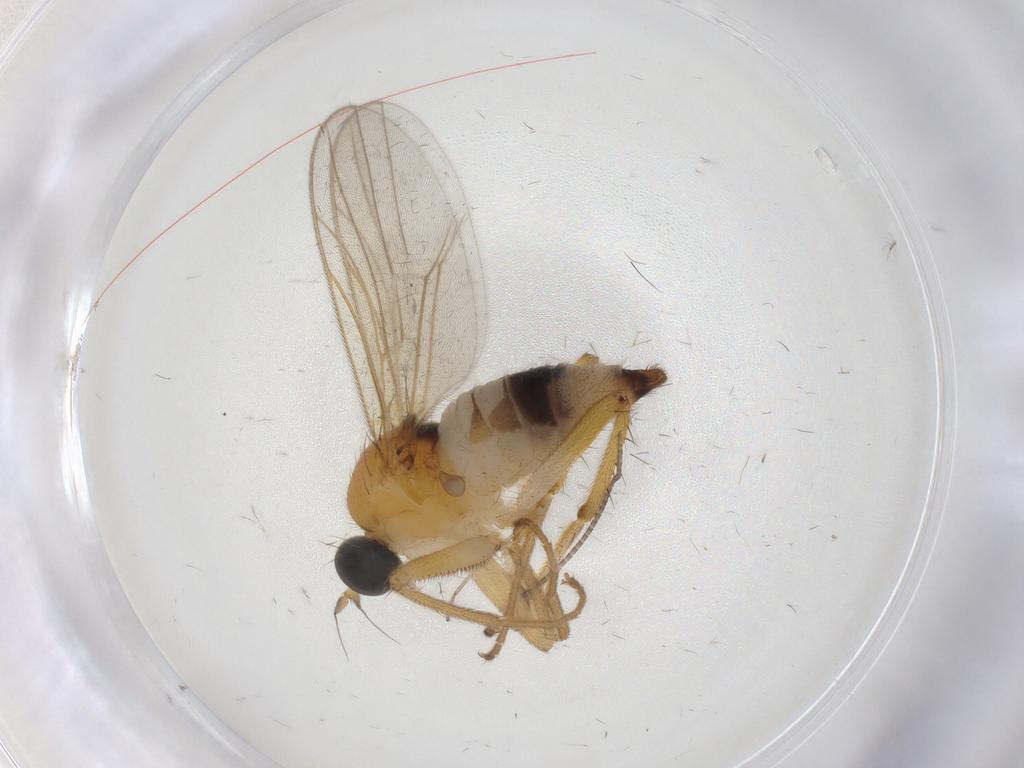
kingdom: Animalia
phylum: Arthropoda
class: Insecta
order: Diptera
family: Hybotidae
